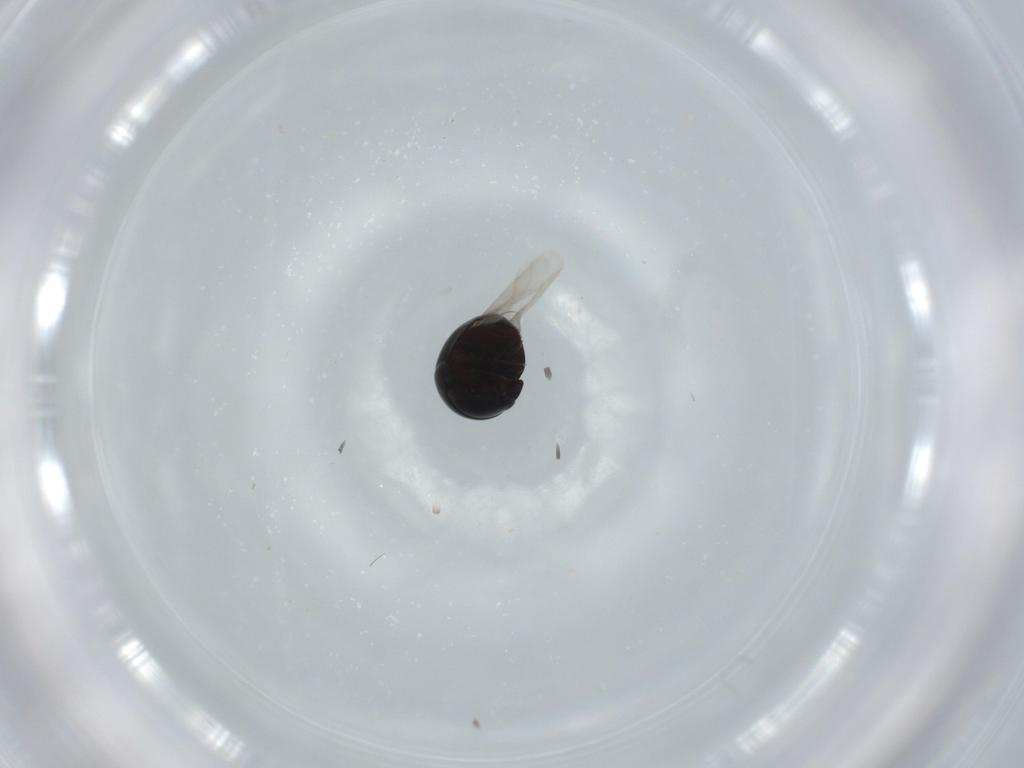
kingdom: Animalia
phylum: Arthropoda
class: Insecta
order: Coleoptera
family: Cybocephalidae
